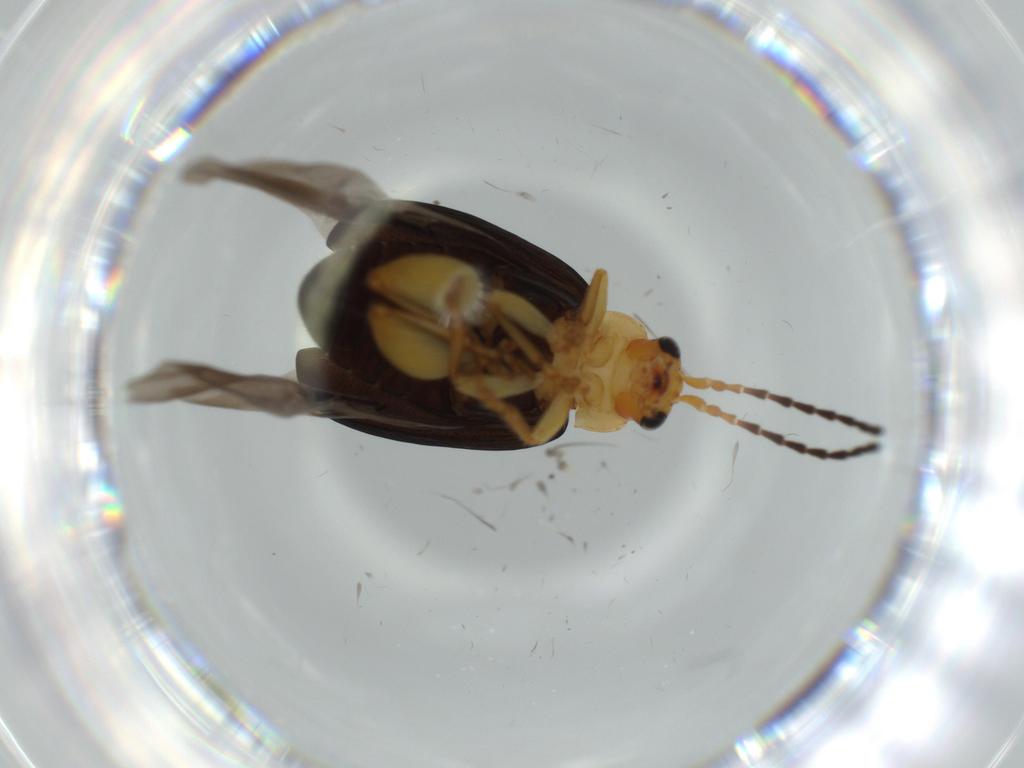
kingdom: Animalia
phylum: Arthropoda
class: Insecta
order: Coleoptera
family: Chrysomelidae
